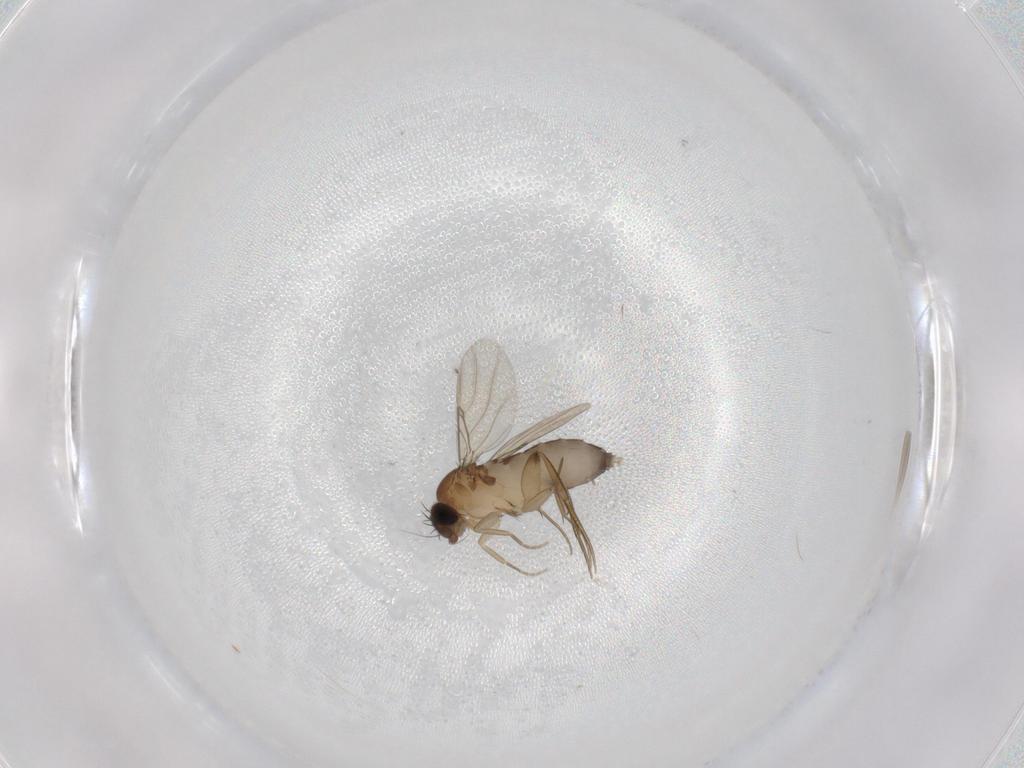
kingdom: Animalia
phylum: Arthropoda
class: Insecta
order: Diptera
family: Phoridae
